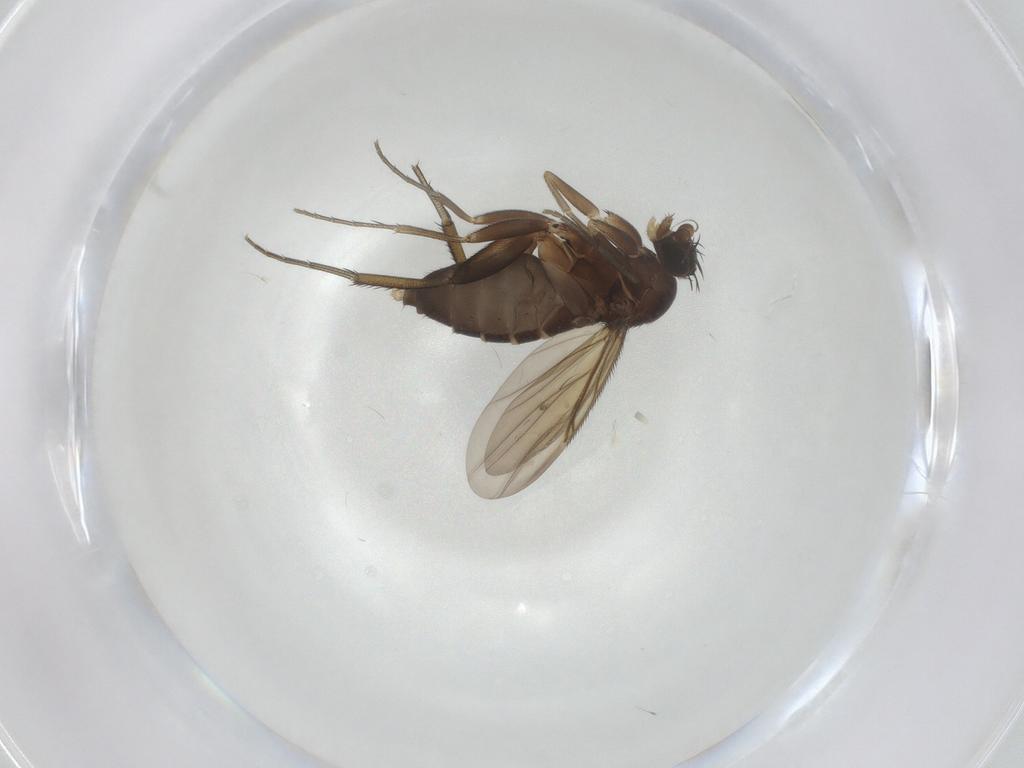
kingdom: Animalia
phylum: Arthropoda
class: Insecta
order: Diptera
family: Phoridae
